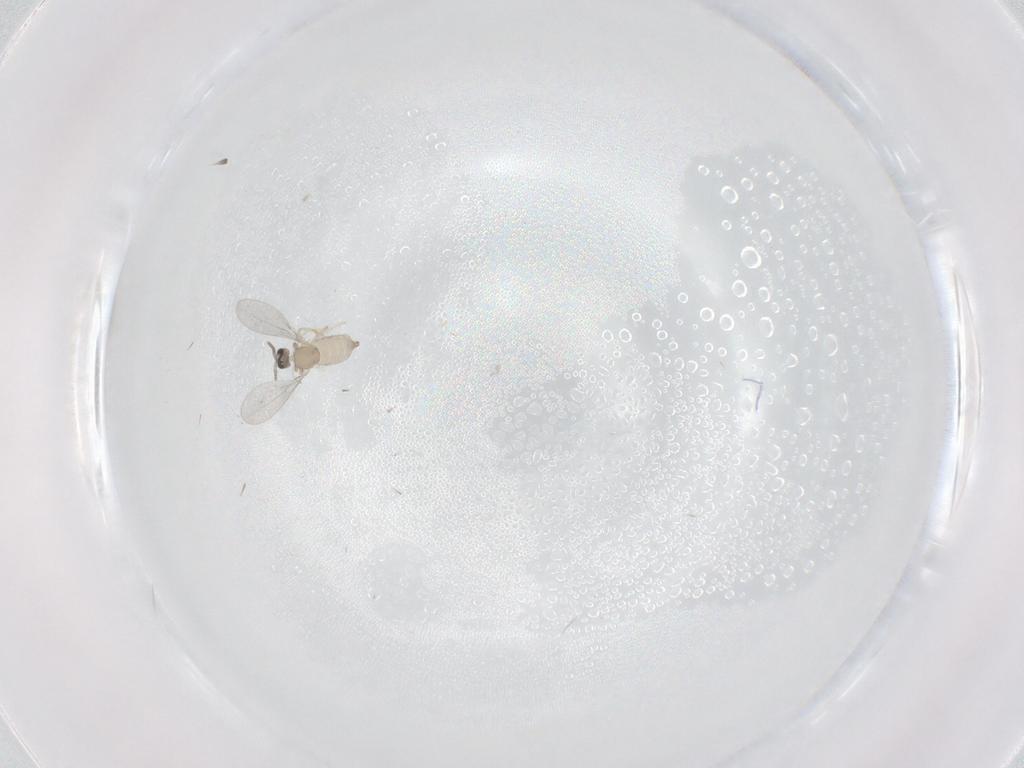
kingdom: Animalia
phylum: Arthropoda
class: Insecta
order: Diptera
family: Cecidomyiidae
